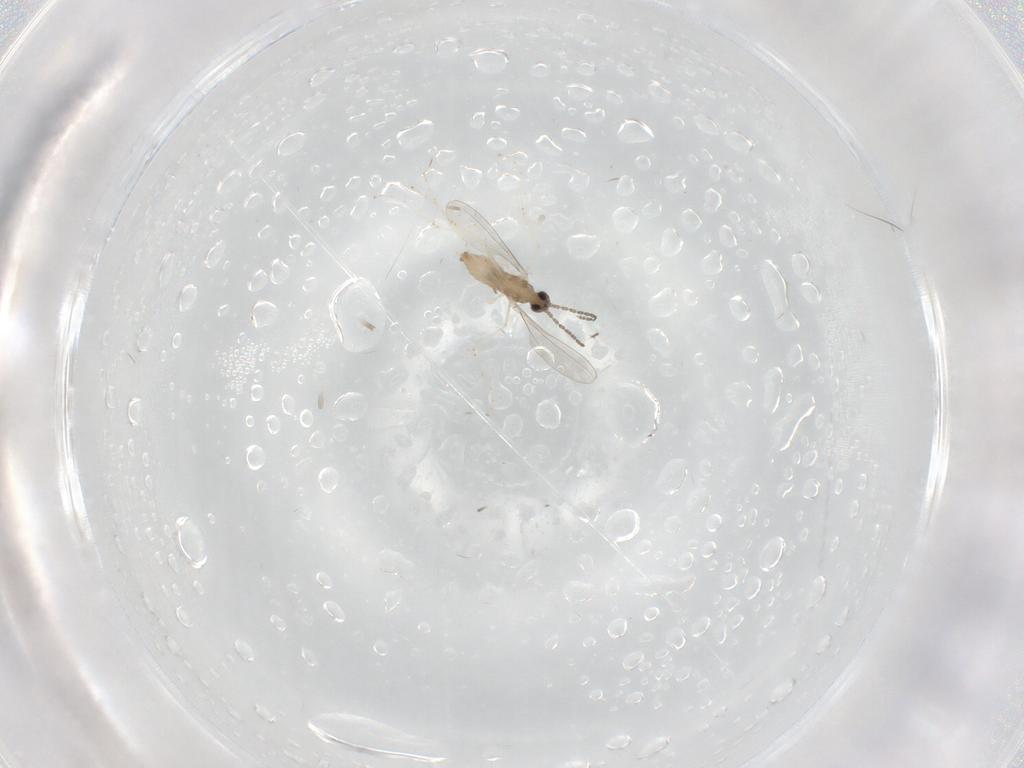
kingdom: Animalia
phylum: Arthropoda
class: Insecta
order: Diptera
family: Cecidomyiidae
